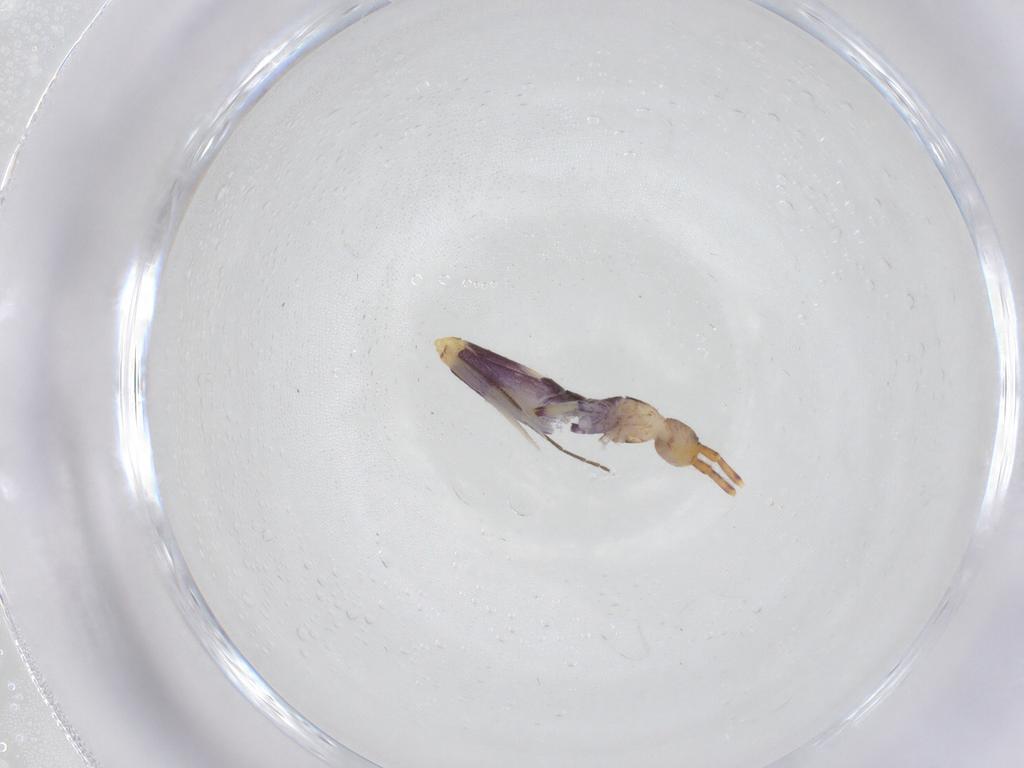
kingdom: Animalia
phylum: Arthropoda
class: Collembola
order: Entomobryomorpha
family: Entomobryidae
